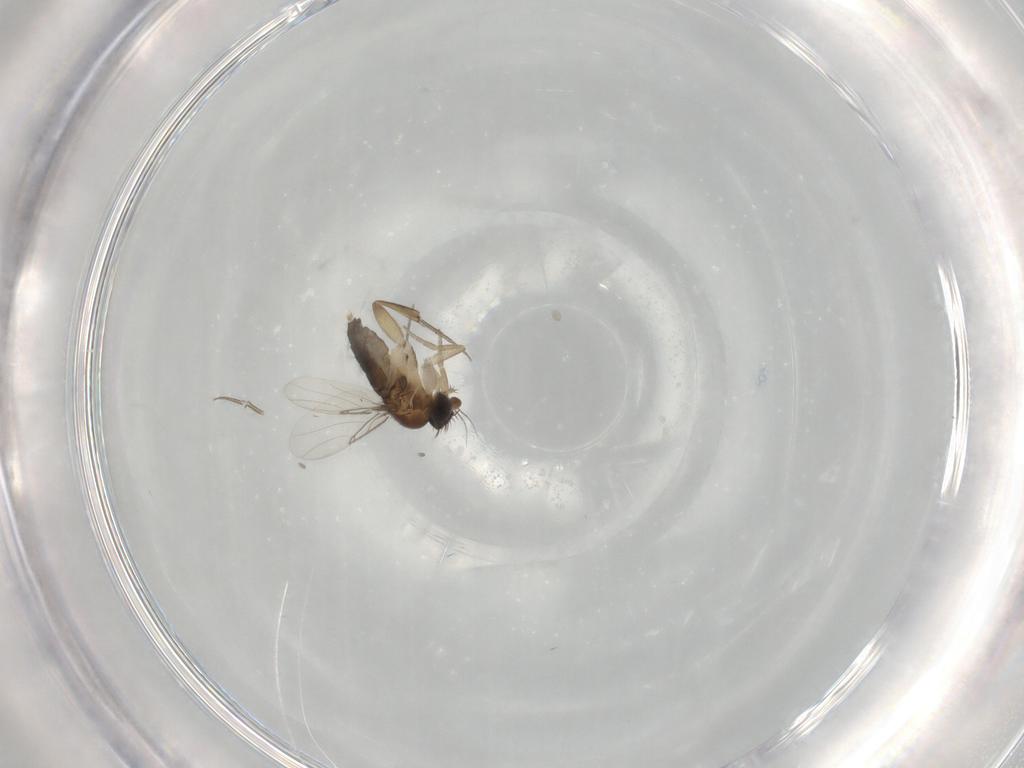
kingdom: Animalia
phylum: Arthropoda
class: Insecta
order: Diptera
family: Phoridae
